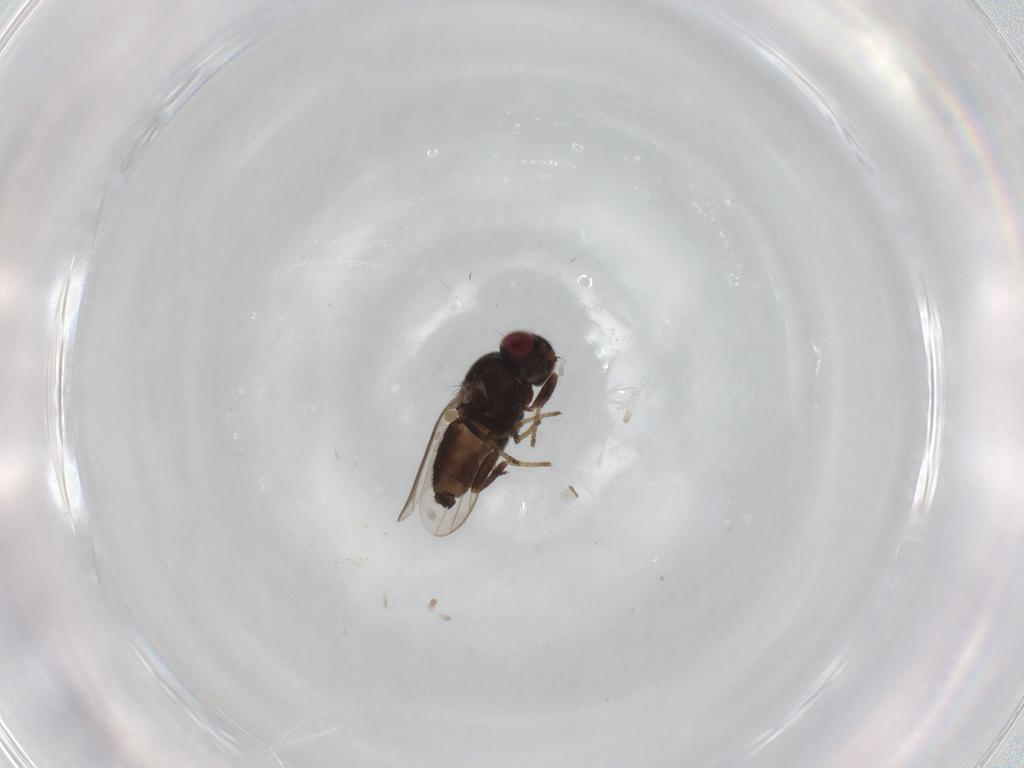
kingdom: Animalia
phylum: Arthropoda
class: Insecta
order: Diptera
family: Chloropidae
